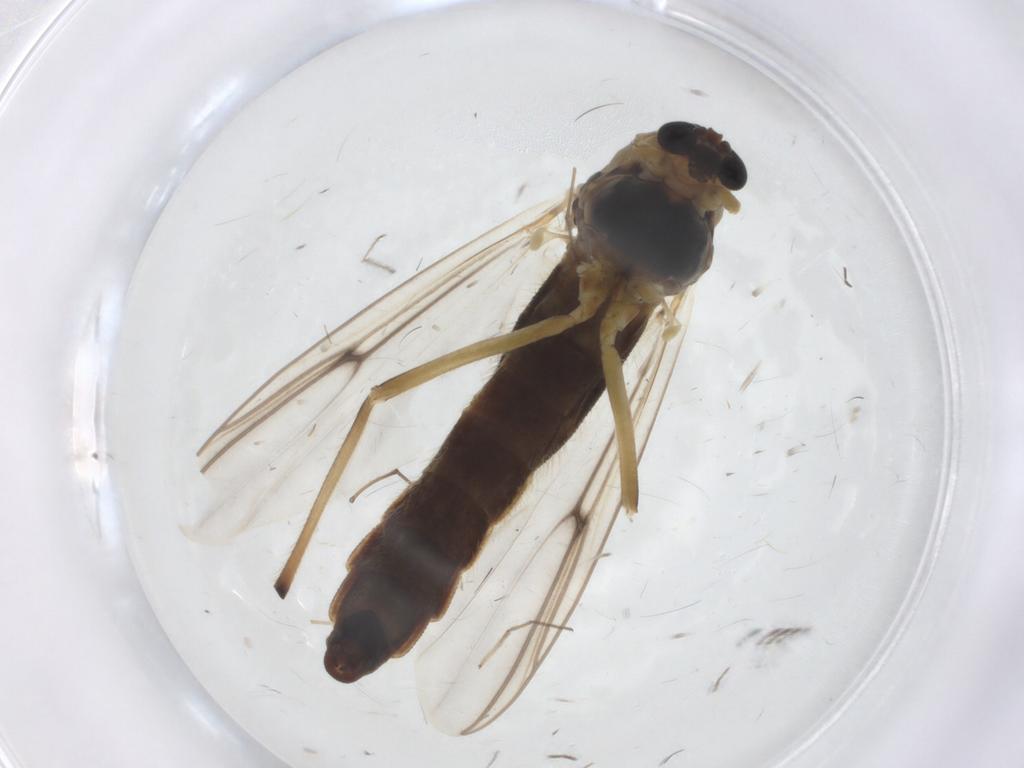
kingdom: Animalia
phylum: Arthropoda
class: Insecta
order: Diptera
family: Chironomidae
